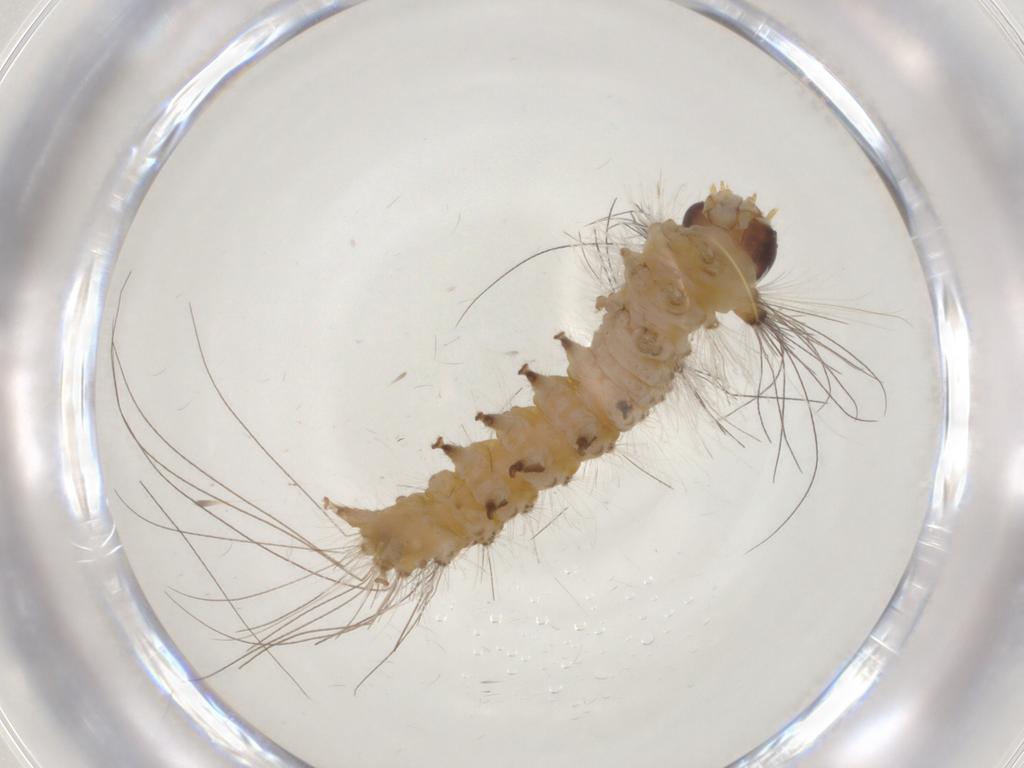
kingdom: Animalia
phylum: Arthropoda
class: Insecta
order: Lepidoptera
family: Erebidae
